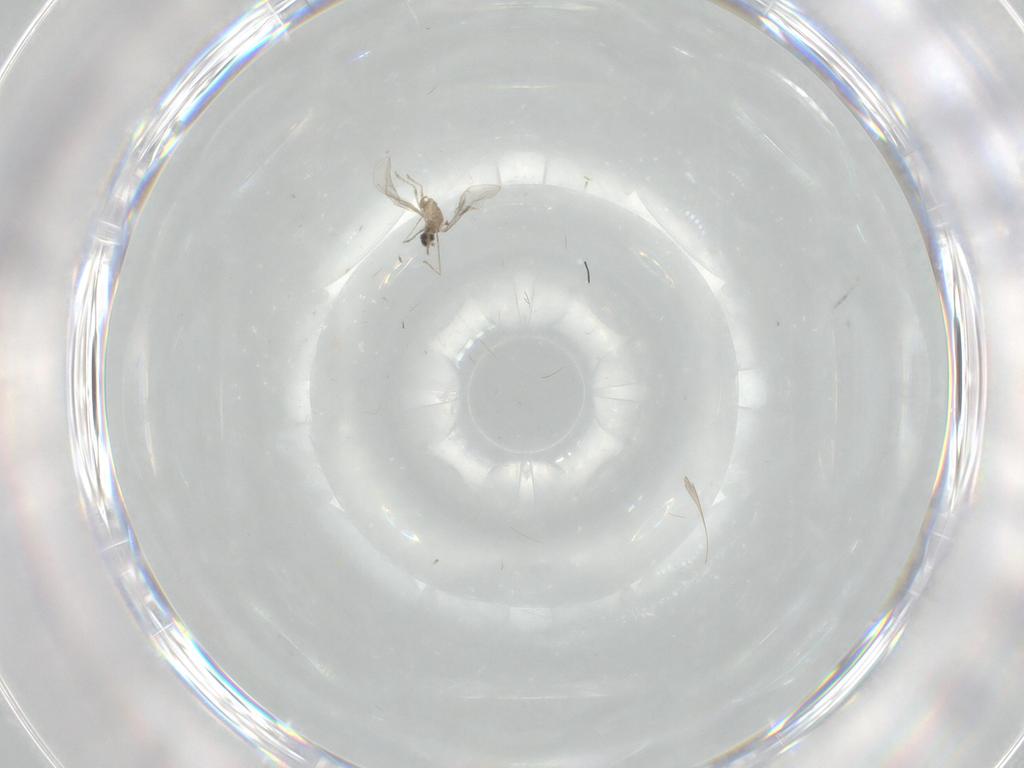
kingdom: Animalia
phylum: Arthropoda
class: Insecta
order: Diptera
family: Cecidomyiidae
